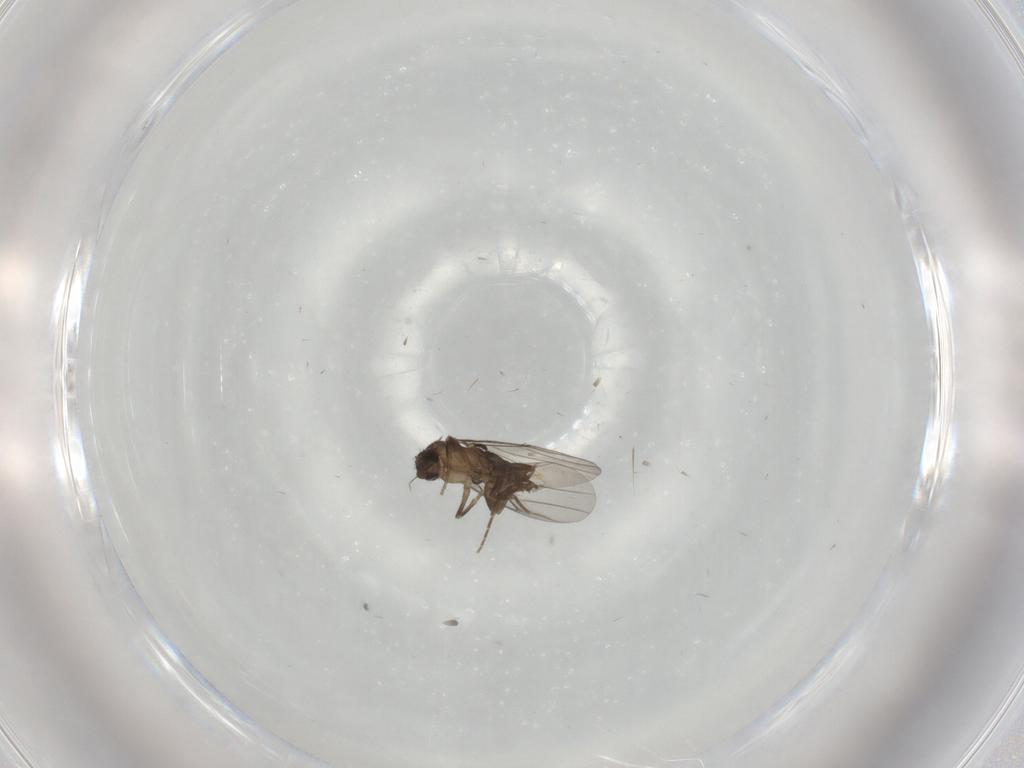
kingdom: Animalia
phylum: Arthropoda
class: Insecta
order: Diptera
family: Phoridae
